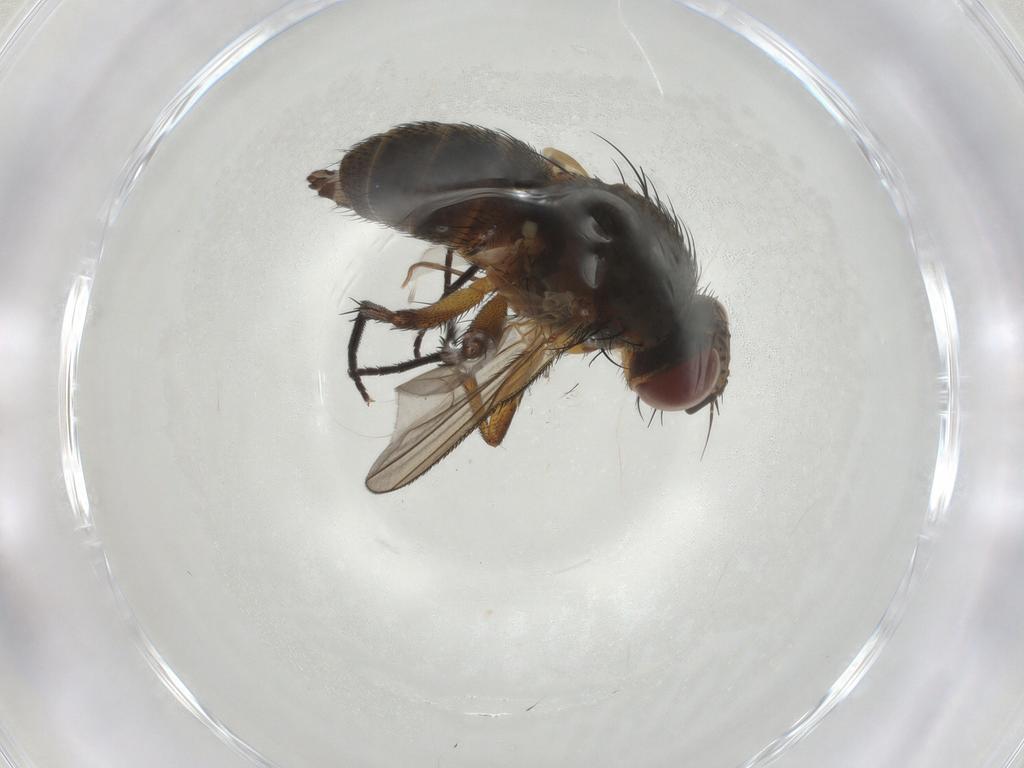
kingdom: Animalia
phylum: Arthropoda
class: Insecta
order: Diptera
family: Tachinidae
